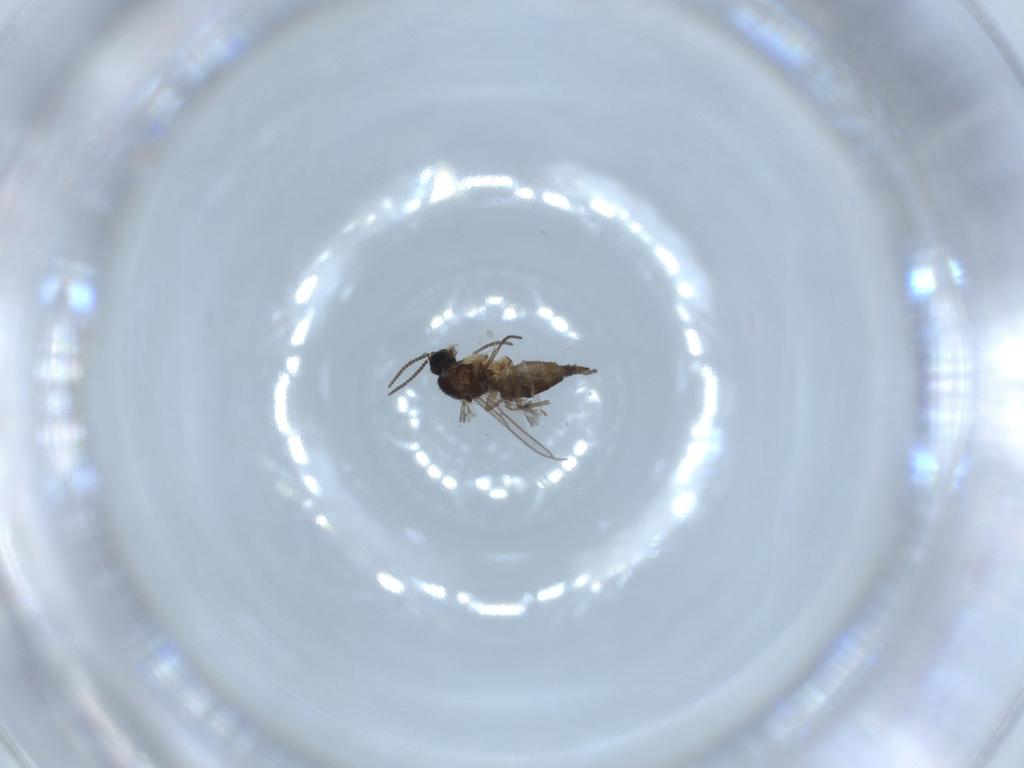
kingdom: Animalia
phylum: Arthropoda
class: Insecta
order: Diptera
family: Sciaridae
